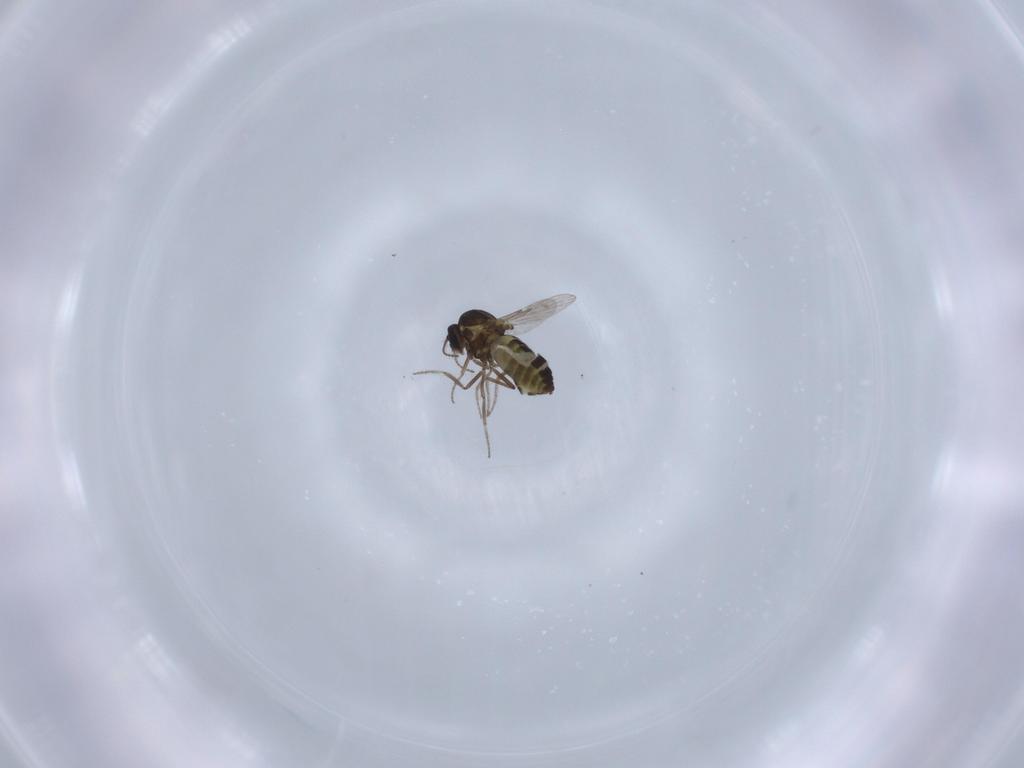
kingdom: Animalia
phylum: Arthropoda
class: Insecta
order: Diptera
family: Ceratopogonidae
